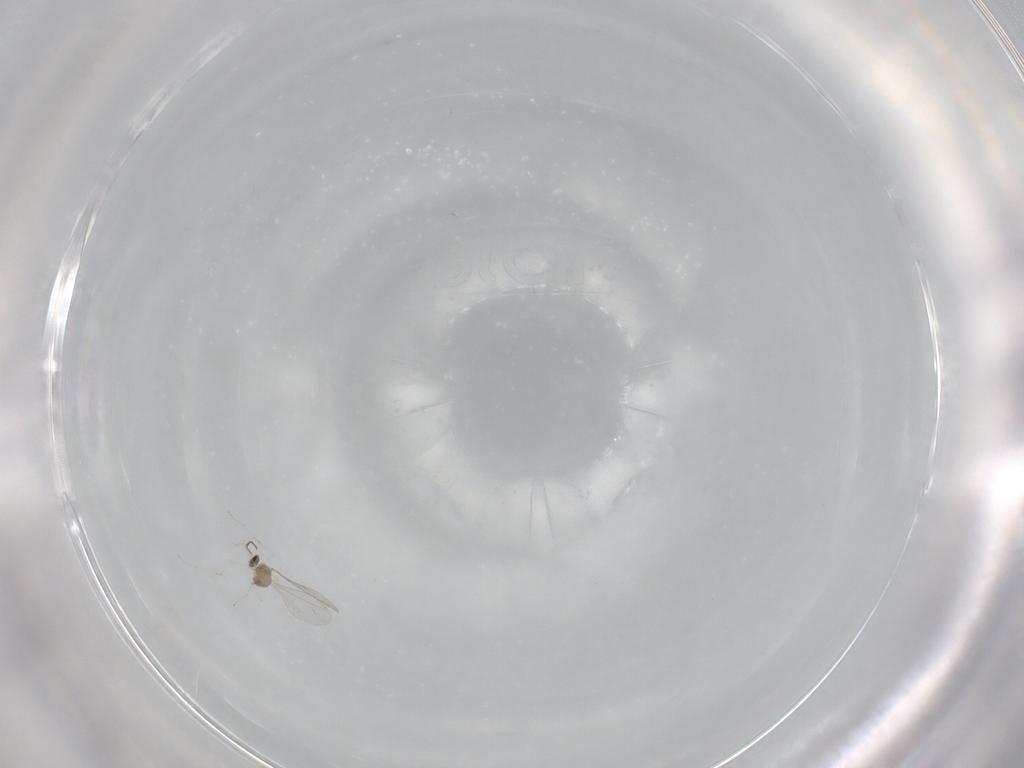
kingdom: Animalia
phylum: Arthropoda
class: Insecta
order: Diptera
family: Cecidomyiidae
